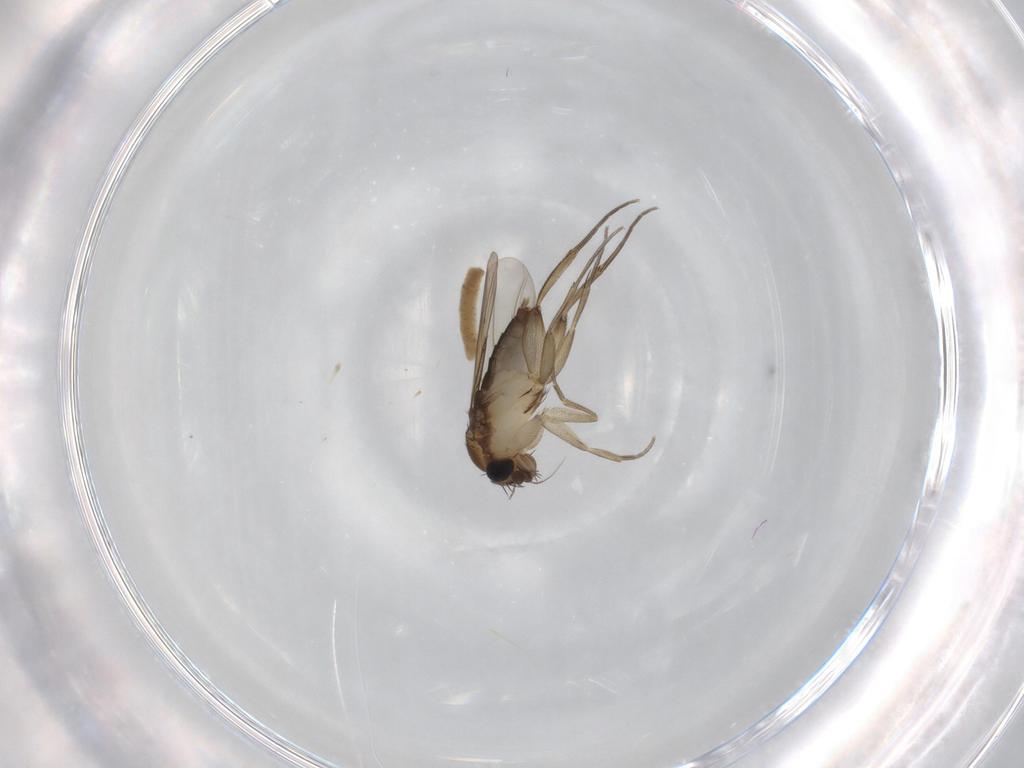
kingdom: Animalia
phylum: Arthropoda
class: Insecta
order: Diptera
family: Phoridae
